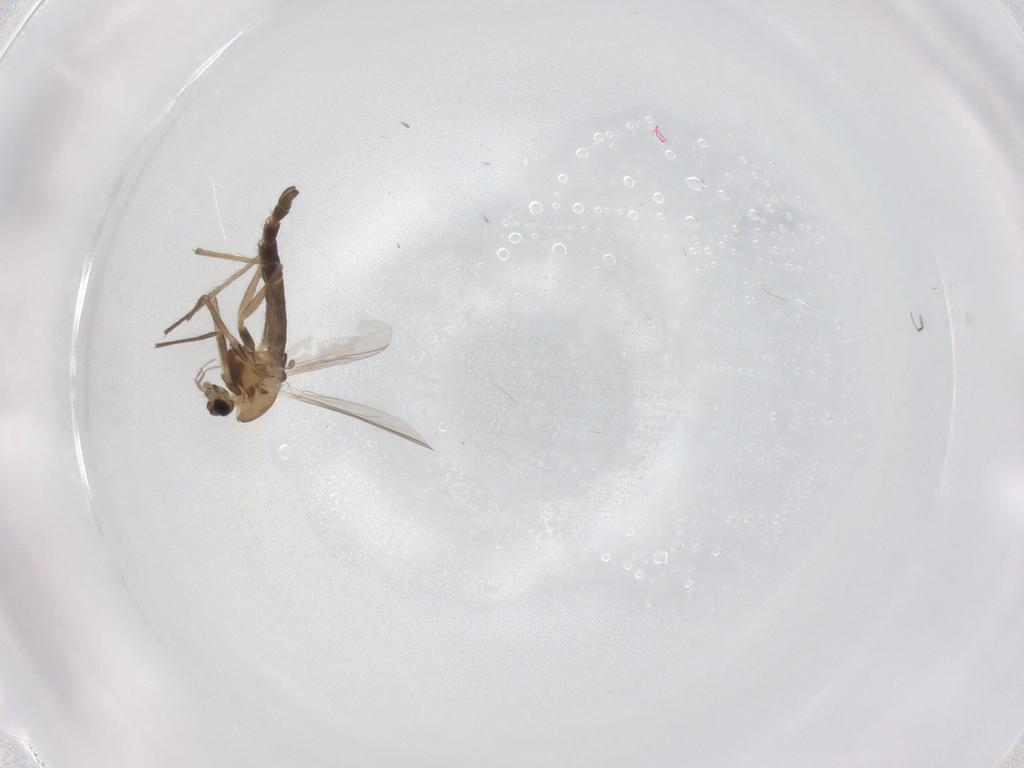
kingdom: Animalia
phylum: Arthropoda
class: Insecta
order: Diptera
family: Chironomidae
